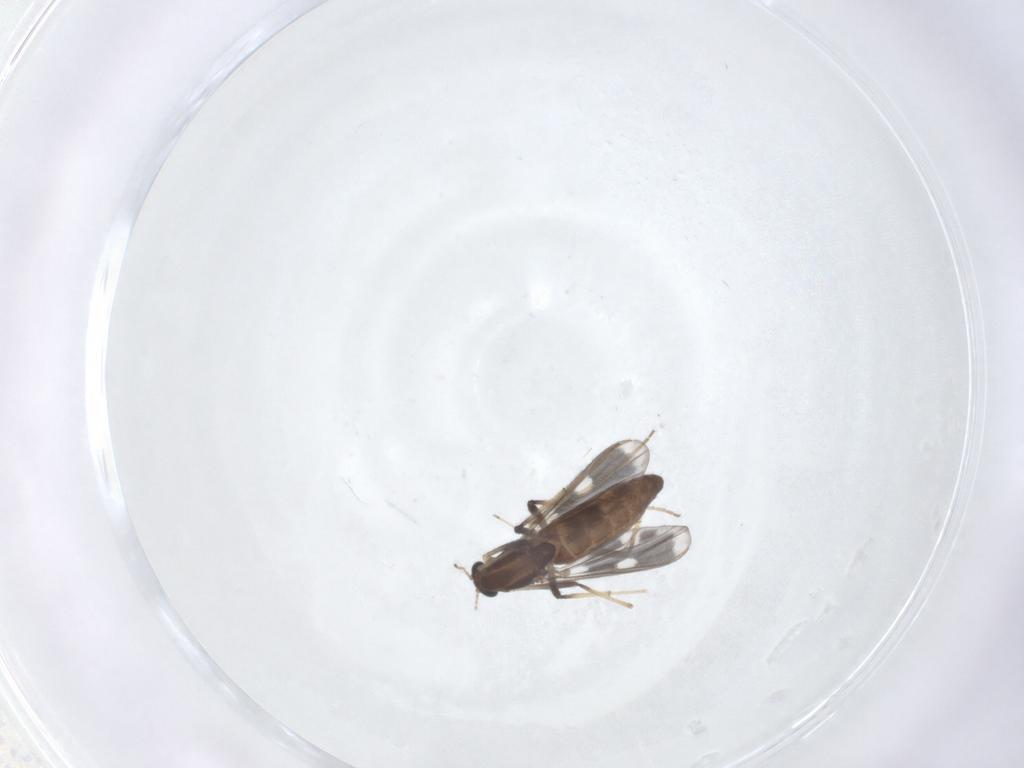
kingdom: Animalia
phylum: Arthropoda
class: Insecta
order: Diptera
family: Chironomidae
